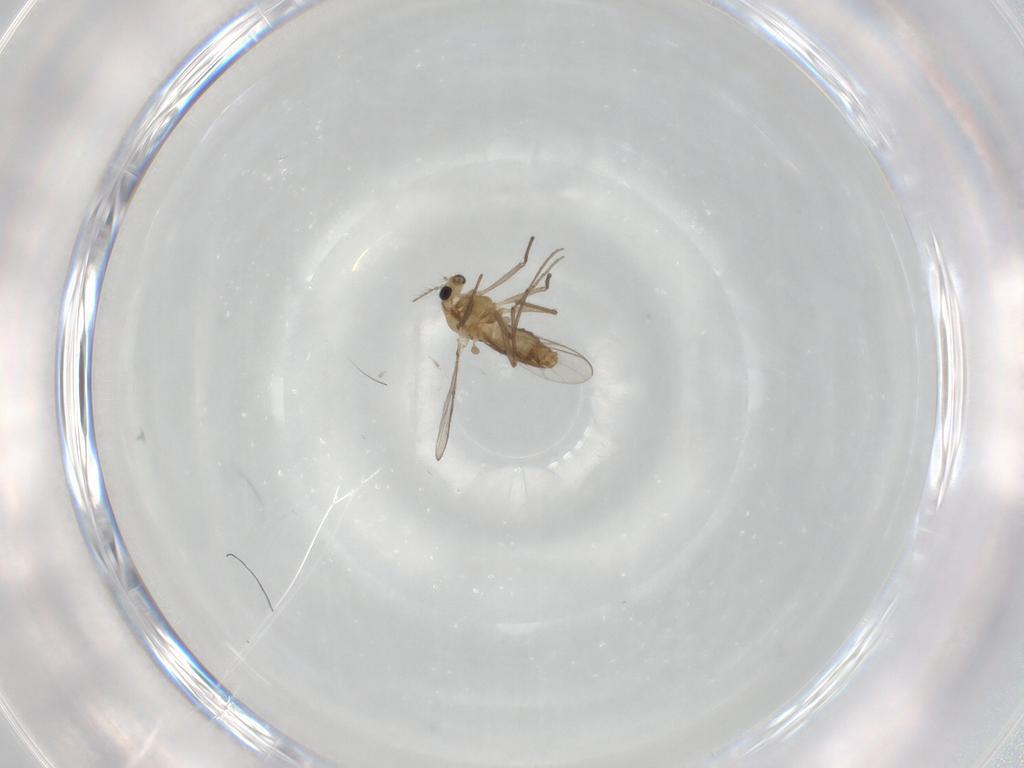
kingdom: Animalia
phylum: Arthropoda
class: Insecta
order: Diptera
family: Chironomidae
